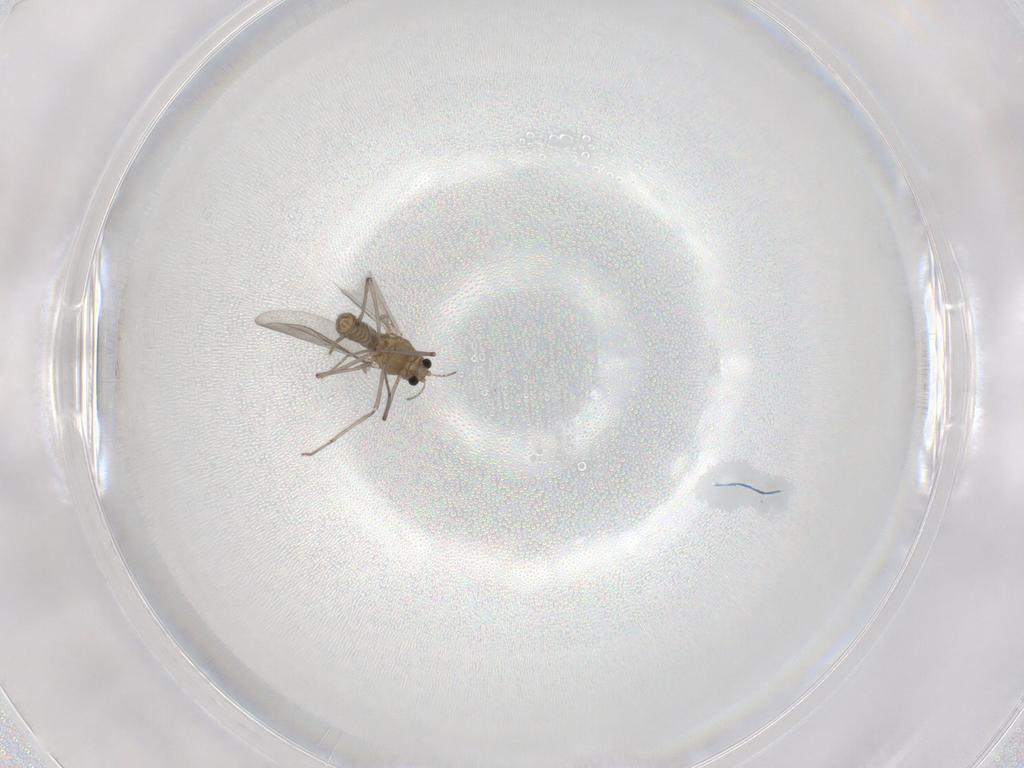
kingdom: Animalia
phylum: Arthropoda
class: Insecta
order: Diptera
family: Chironomidae
